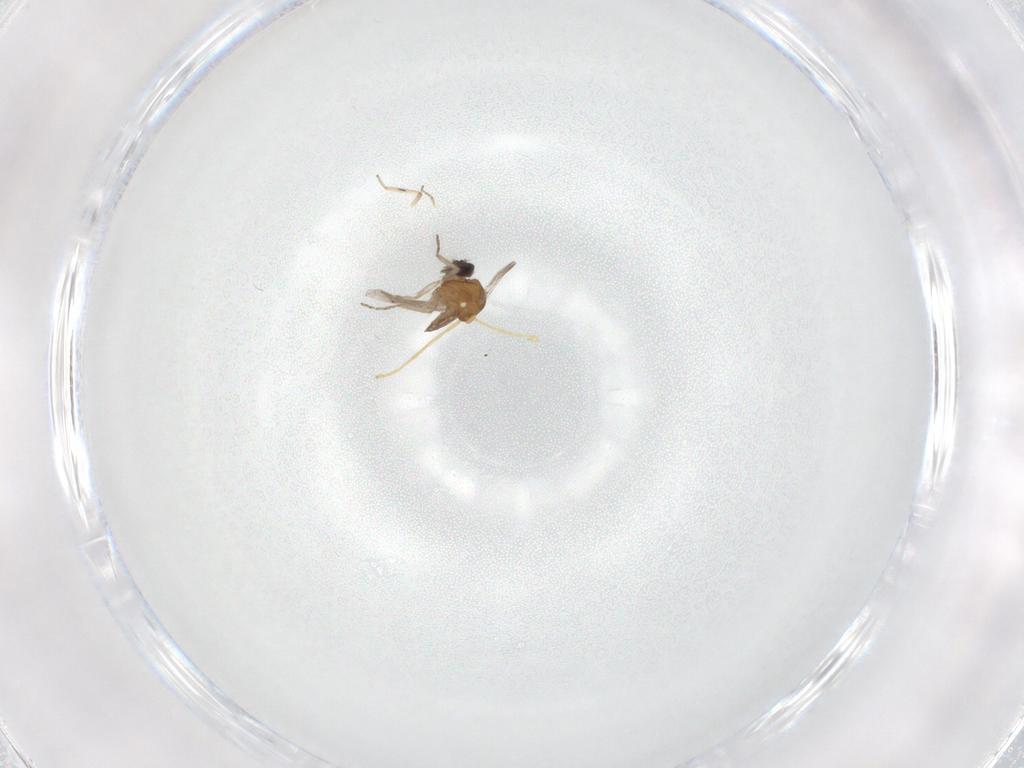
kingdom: Animalia
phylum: Arthropoda
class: Insecta
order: Diptera
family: Ceratopogonidae
